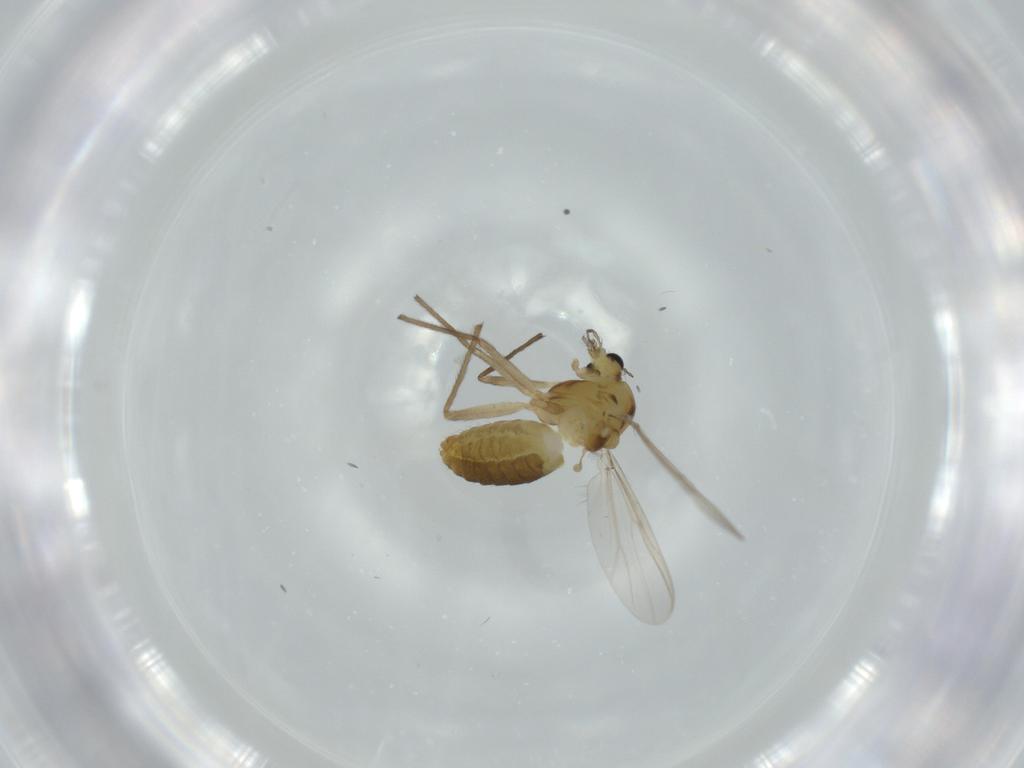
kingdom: Animalia
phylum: Arthropoda
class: Insecta
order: Diptera
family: Chironomidae
